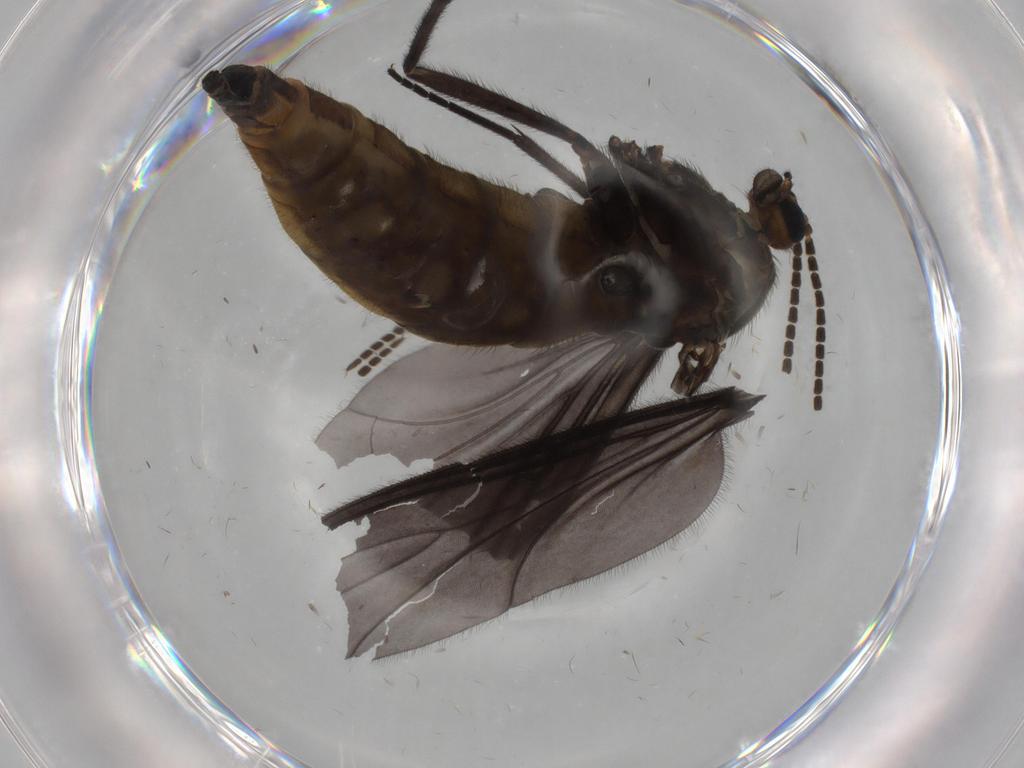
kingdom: Animalia
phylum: Arthropoda
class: Insecta
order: Diptera
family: Sciaridae
